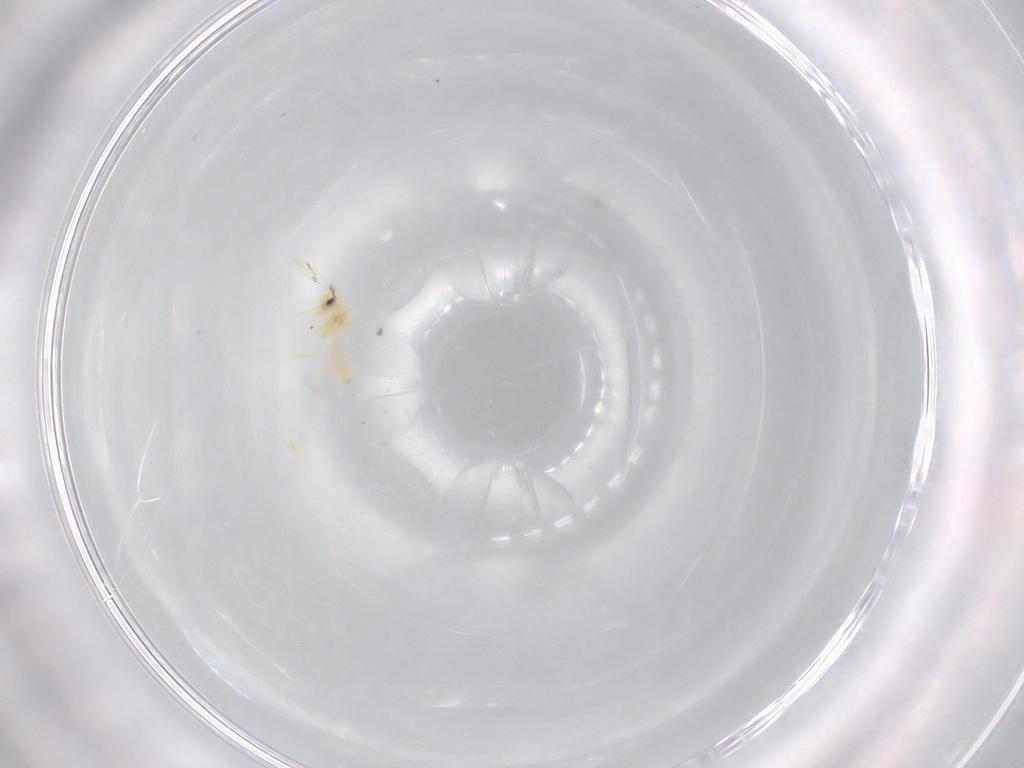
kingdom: Animalia
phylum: Arthropoda
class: Insecta
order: Hemiptera
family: Aleyrodidae
